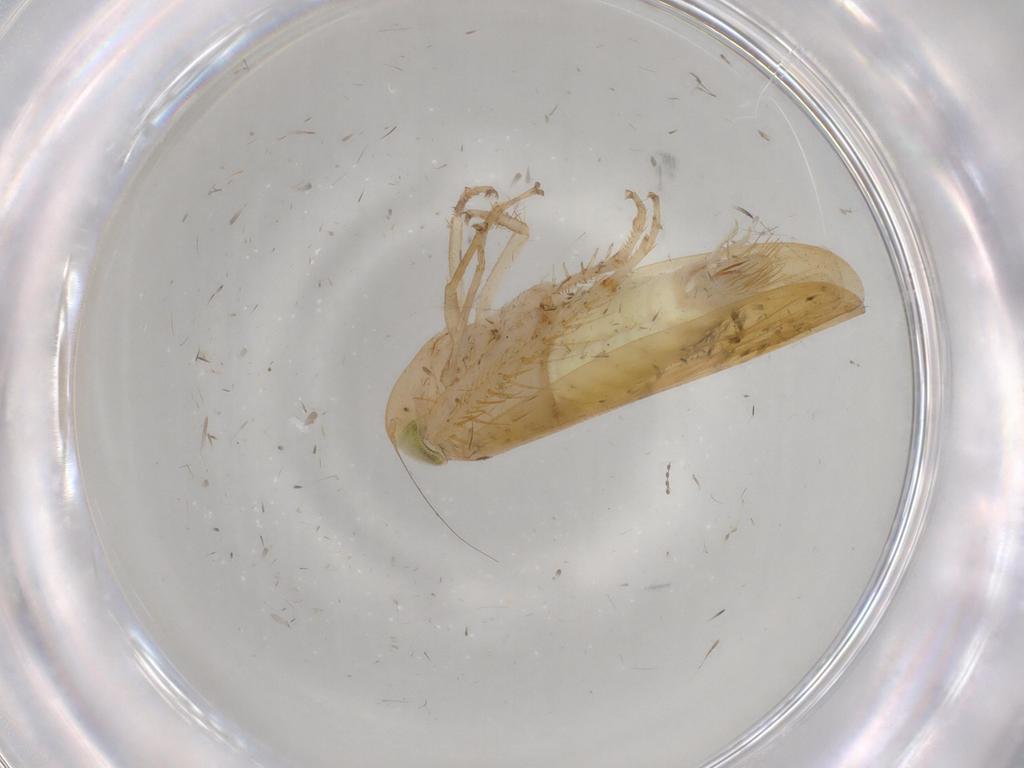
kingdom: Animalia
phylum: Arthropoda
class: Insecta
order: Hemiptera
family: Cicadellidae
